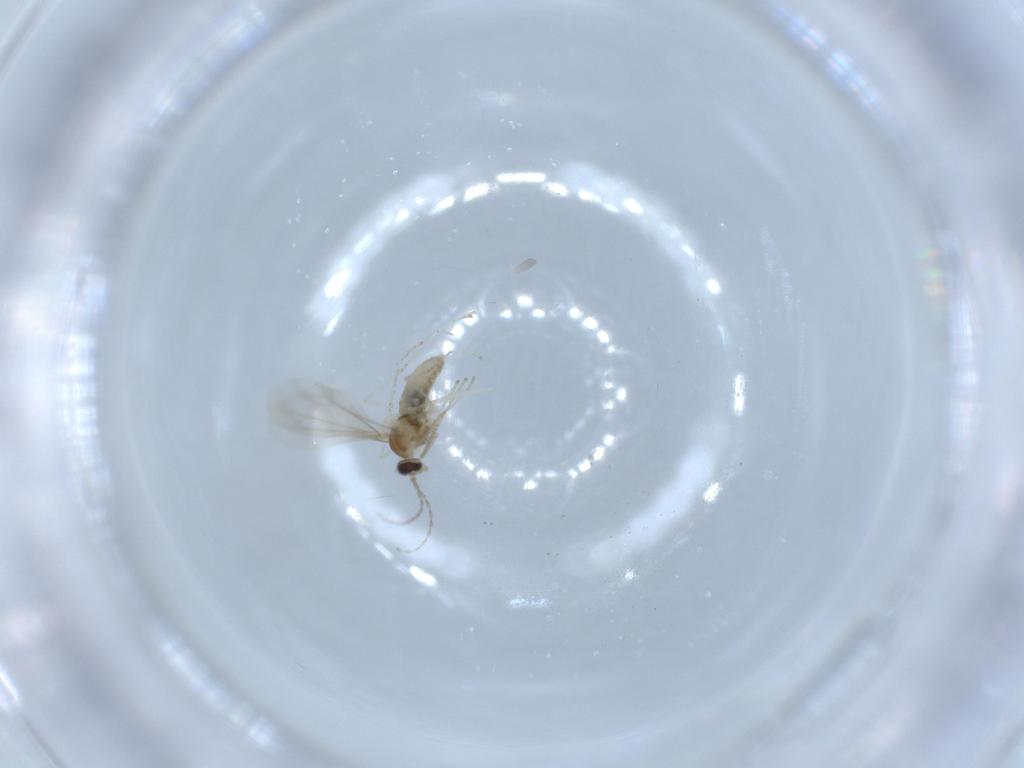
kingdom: Animalia
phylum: Arthropoda
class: Insecta
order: Diptera
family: Cecidomyiidae
